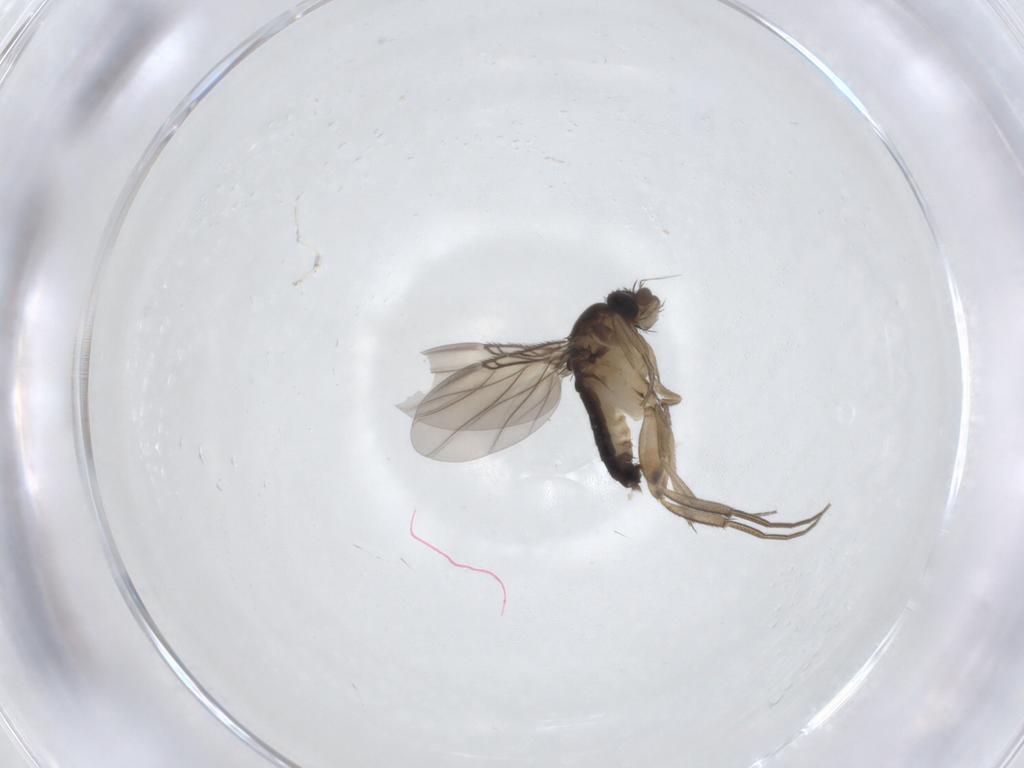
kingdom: Animalia
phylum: Arthropoda
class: Insecta
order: Diptera
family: Phoridae
